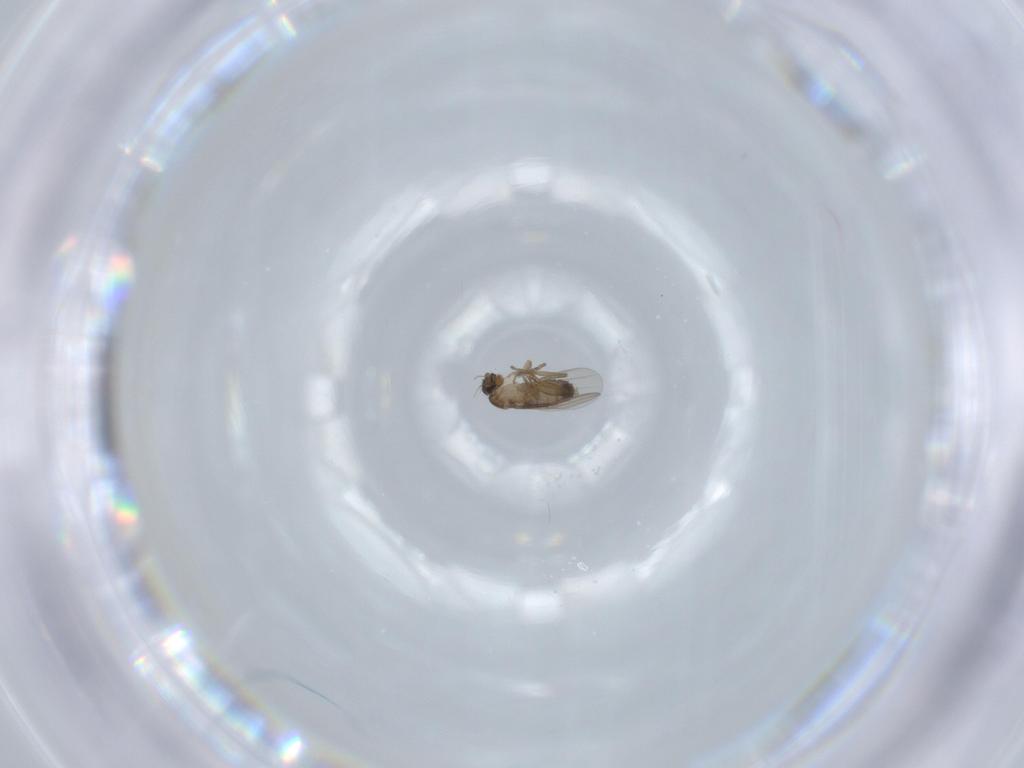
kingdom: Animalia
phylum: Arthropoda
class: Insecta
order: Diptera
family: Phoridae
